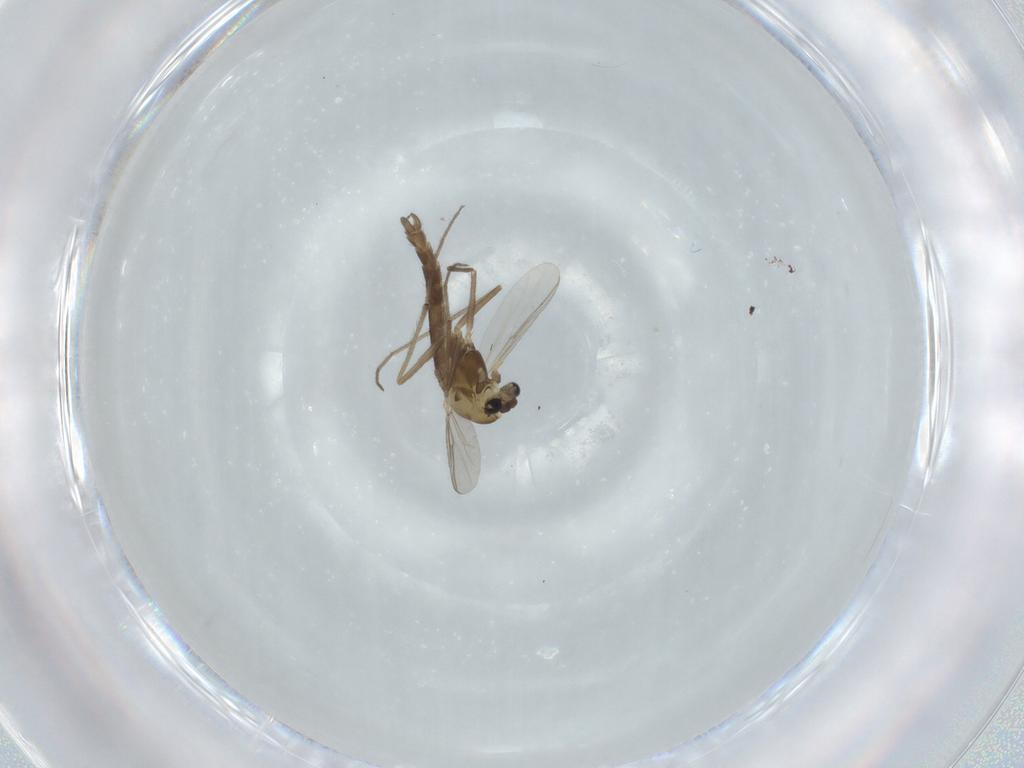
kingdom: Animalia
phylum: Arthropoda
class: Insecta
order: Diptera
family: Chironomidae
